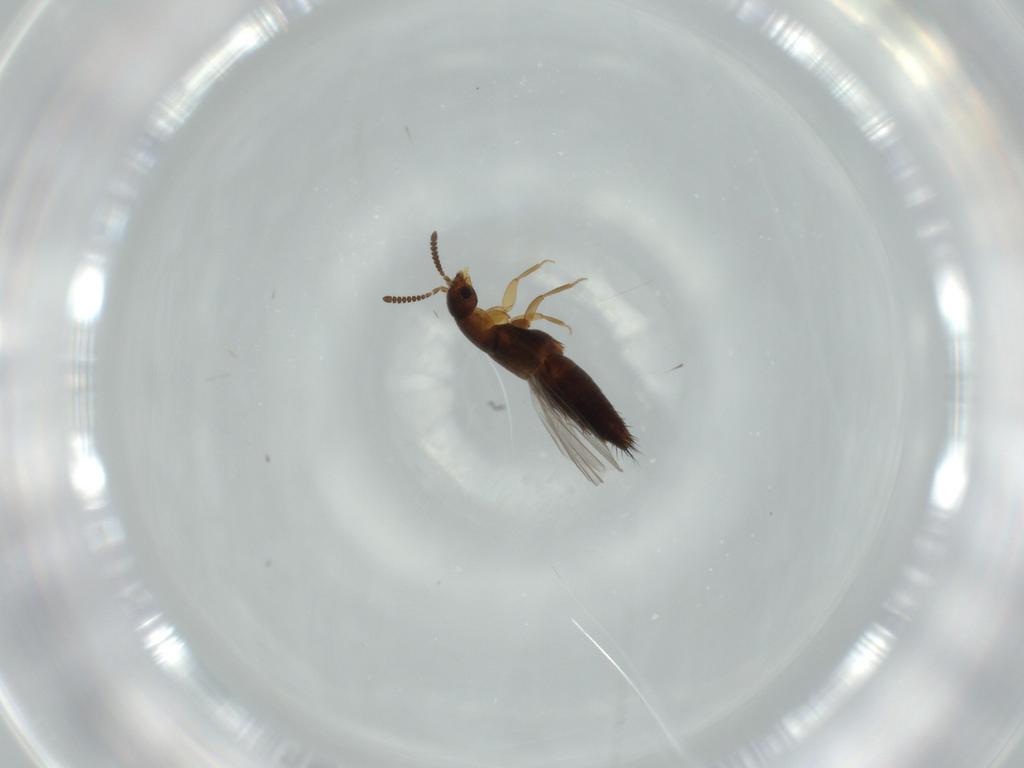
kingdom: Animalia
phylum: Arthropoda
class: Insecta
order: Coleoptera
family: Staphylinidae
